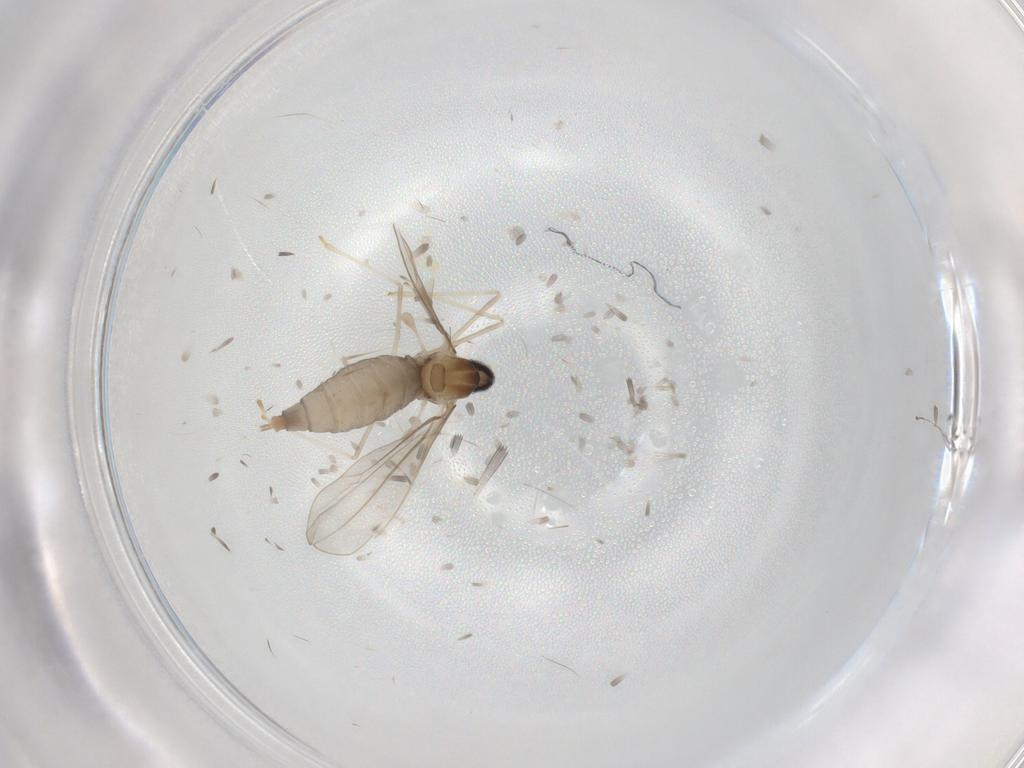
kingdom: Animalia
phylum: Arthropoda
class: Insecta
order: Diptera
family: Cecidomyiidae
